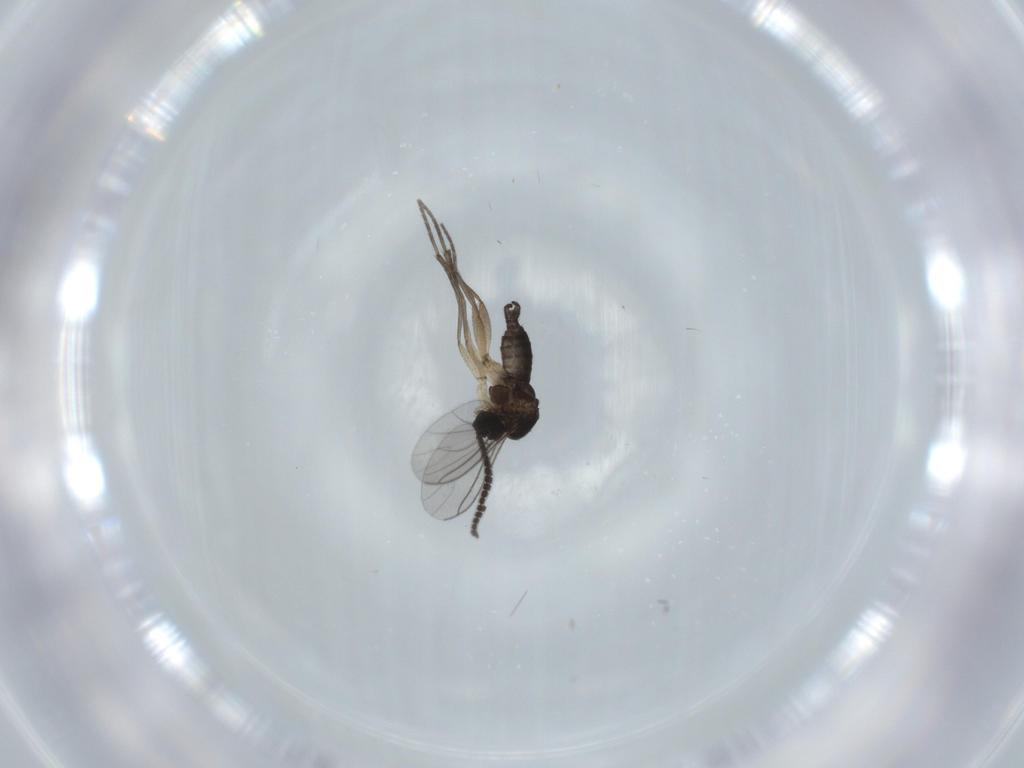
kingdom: Animalia
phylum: Arthropoda
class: Insecta
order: Diptera
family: Sciaridae
